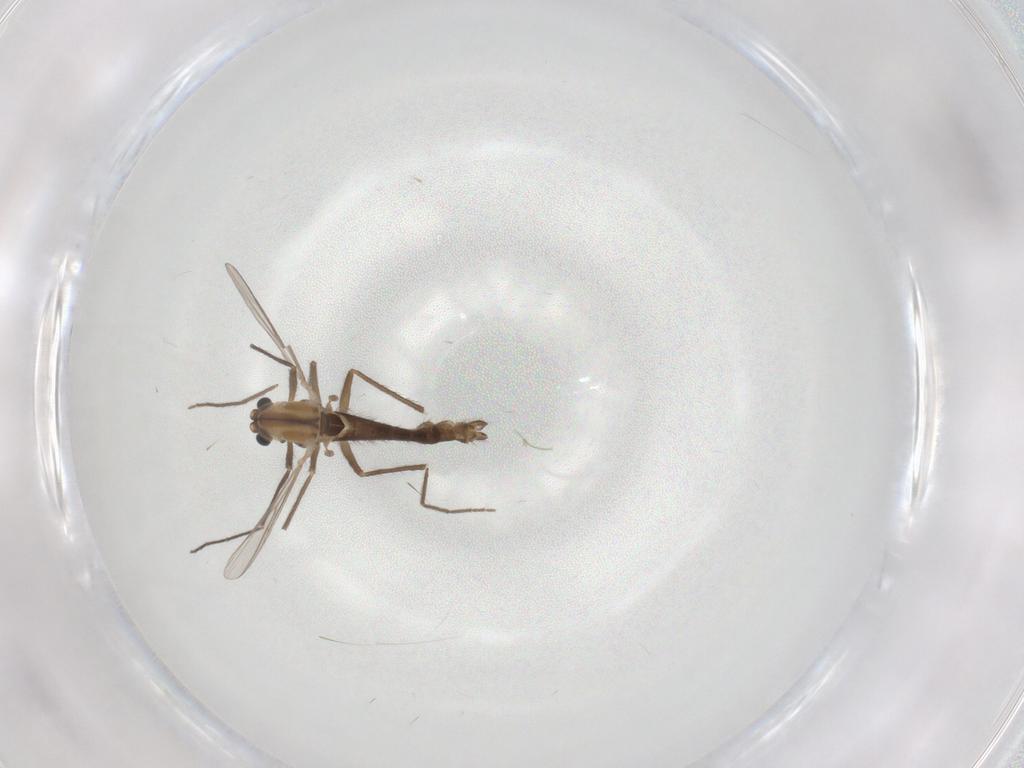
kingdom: Animalia
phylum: Arthropoda
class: Insecta
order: Diptera
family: Chironomidae
